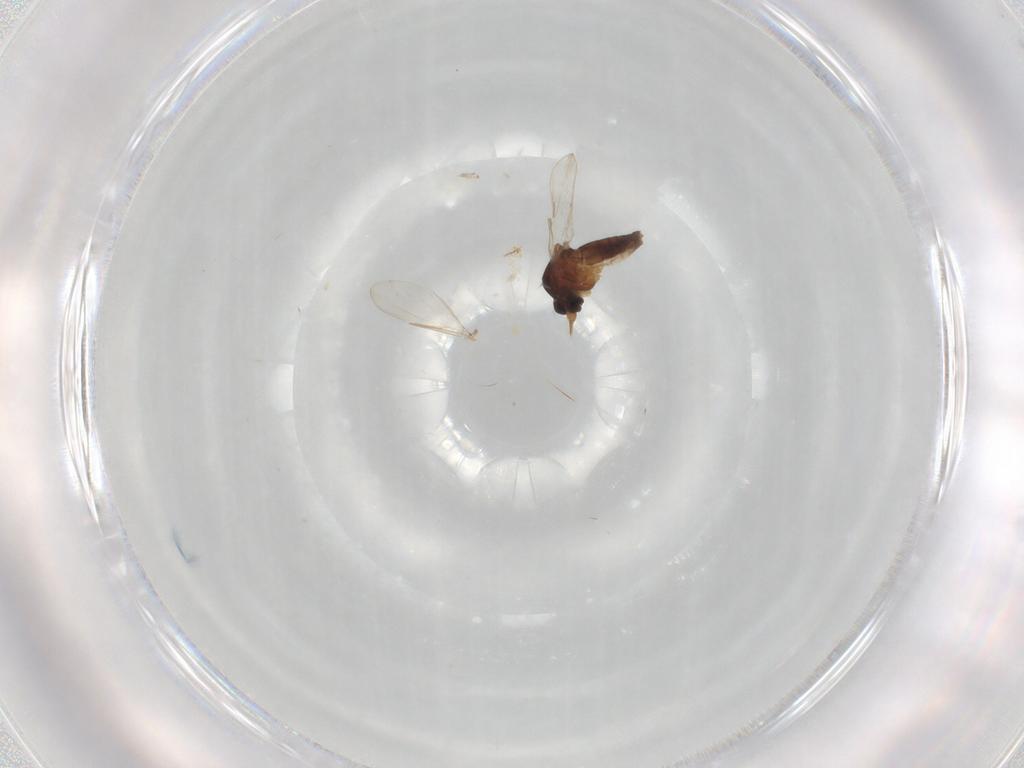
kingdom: Animalia
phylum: Arthropoda
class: Insecta
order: Diptera
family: Ceratopogonidae
